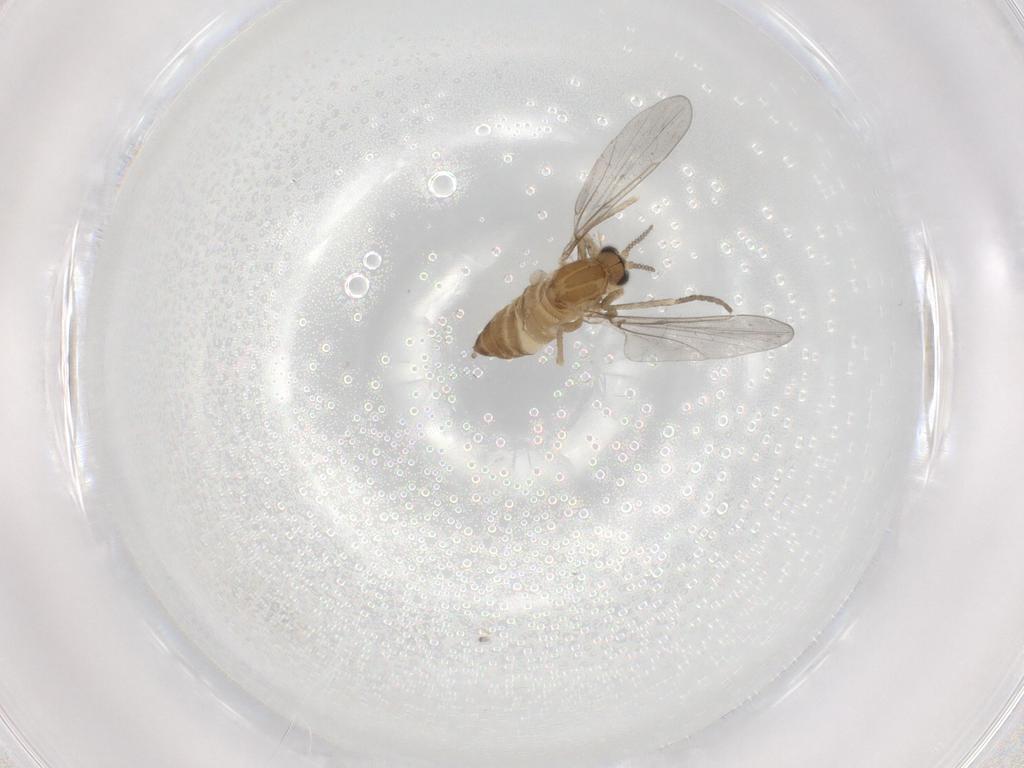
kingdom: Animalia
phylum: Arthropoda
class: Insecta
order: Diptera
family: Cecidomyiidae
